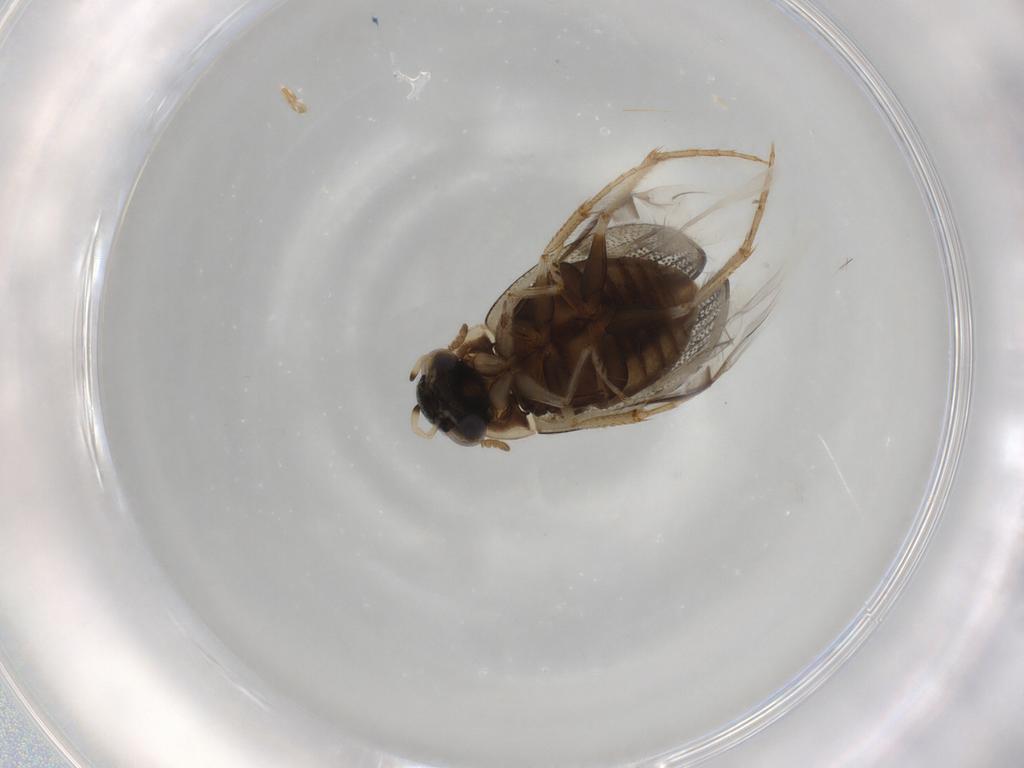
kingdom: Animalia
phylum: Arthropoda
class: Insecta
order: Coleoptera
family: Hydrophilidae
